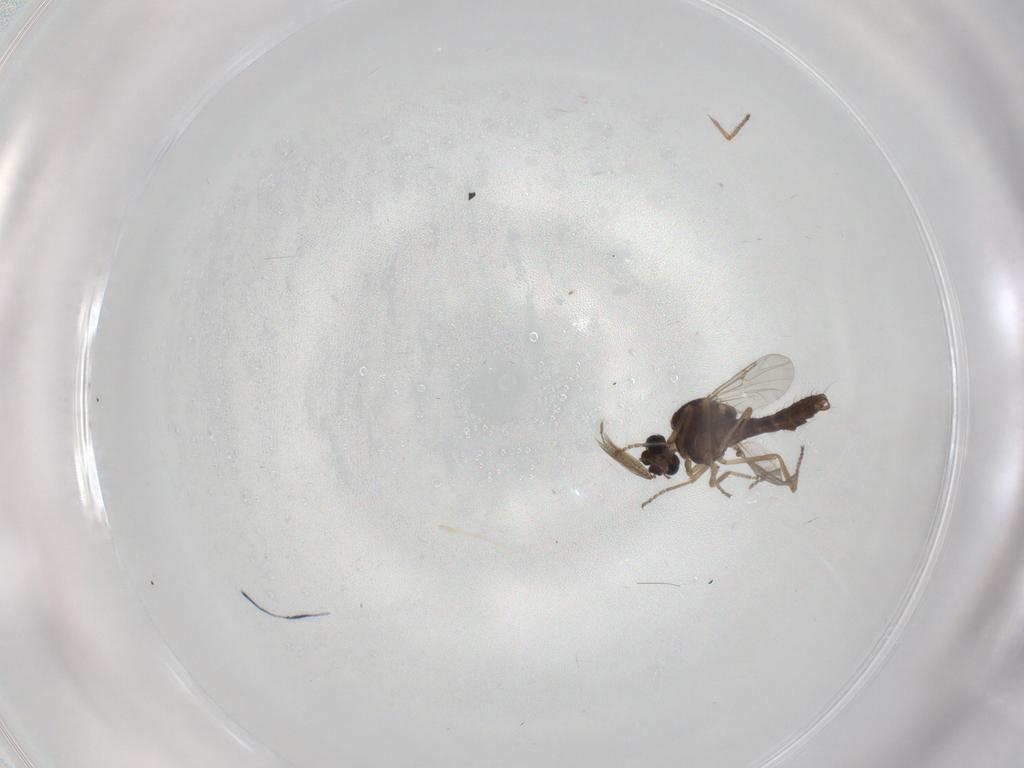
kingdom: Animalia
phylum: Arthropoda
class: Insecta
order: Diptera
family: Ceratopogonidae
